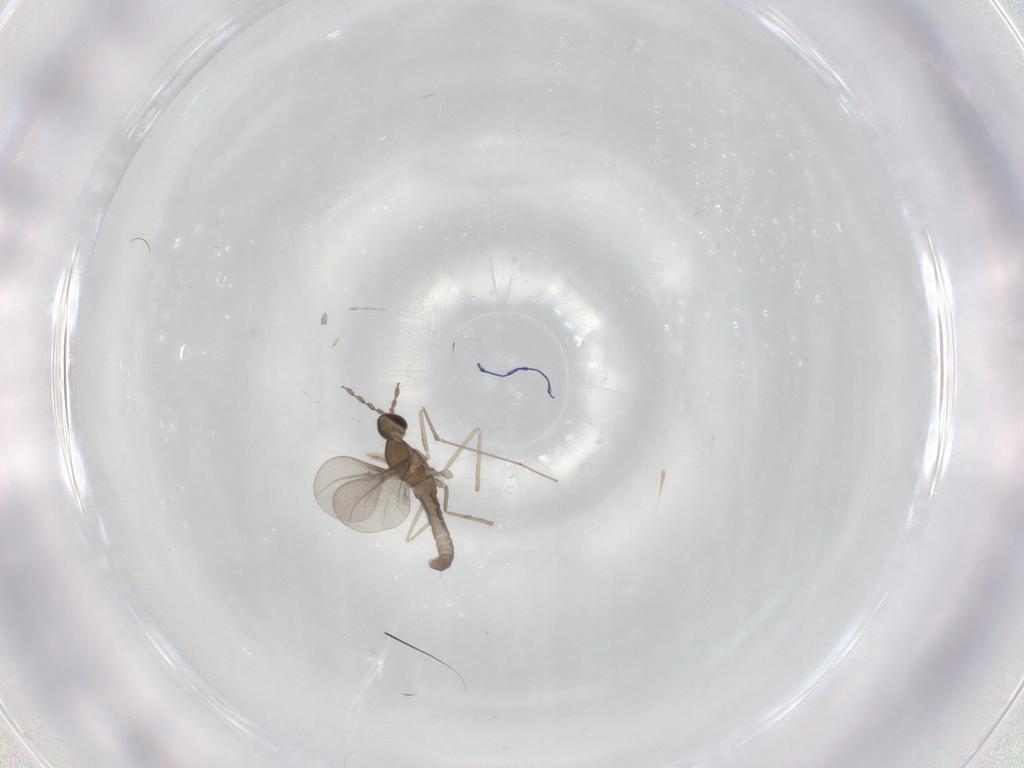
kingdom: Animalia
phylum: Arthropoda
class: Insecta
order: Diptera
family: Cecidomyiidae
